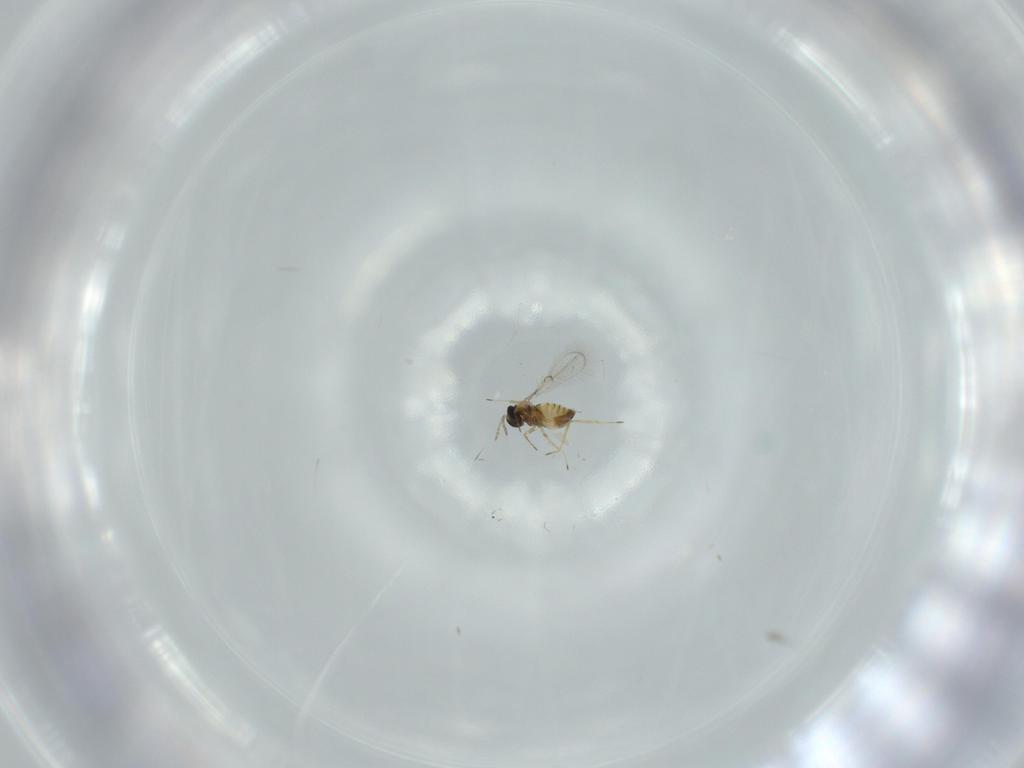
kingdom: Animalia
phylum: Arthropoda
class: Insecta
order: Hymenoptera
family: Trichogrammatidae
